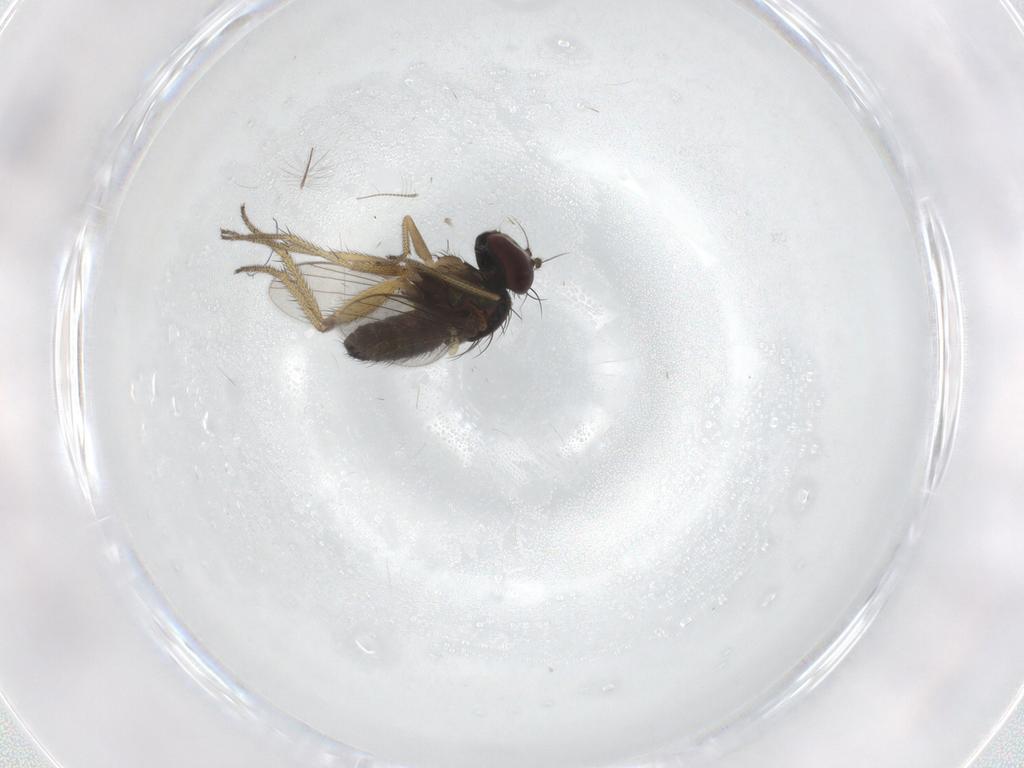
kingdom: Animalia
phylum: Arthropoda
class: Insecta
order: Diptera
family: Chironomidae
